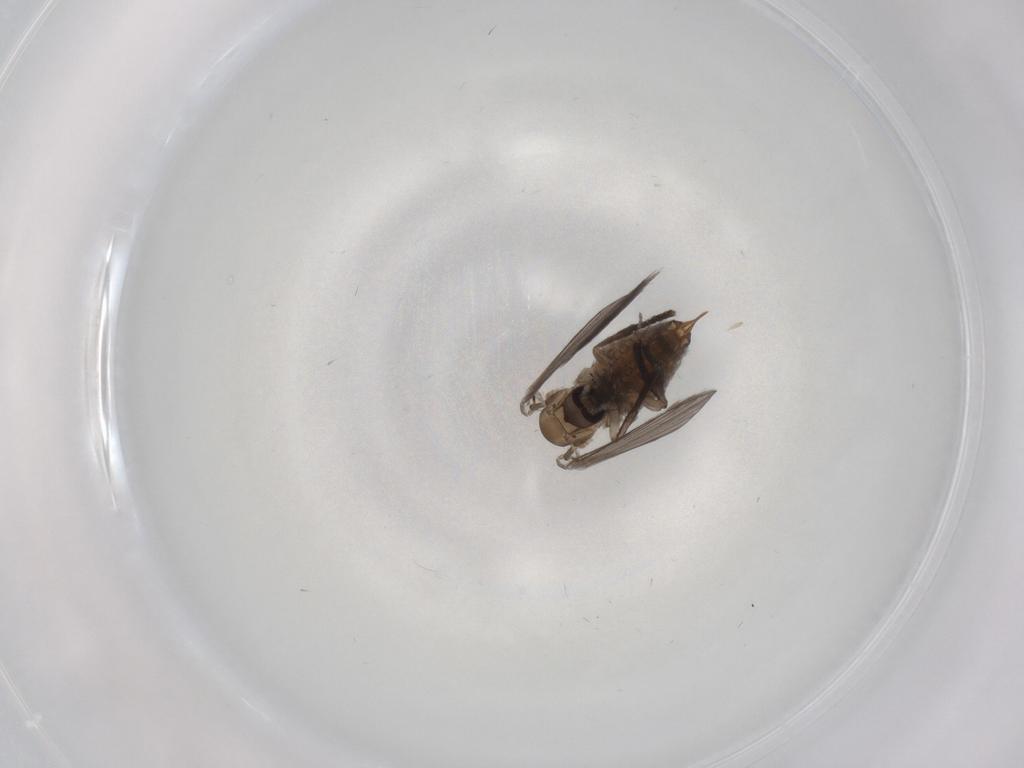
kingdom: Animalia
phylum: Arthropoda
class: Insecta
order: Diptera
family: Psychodidae
